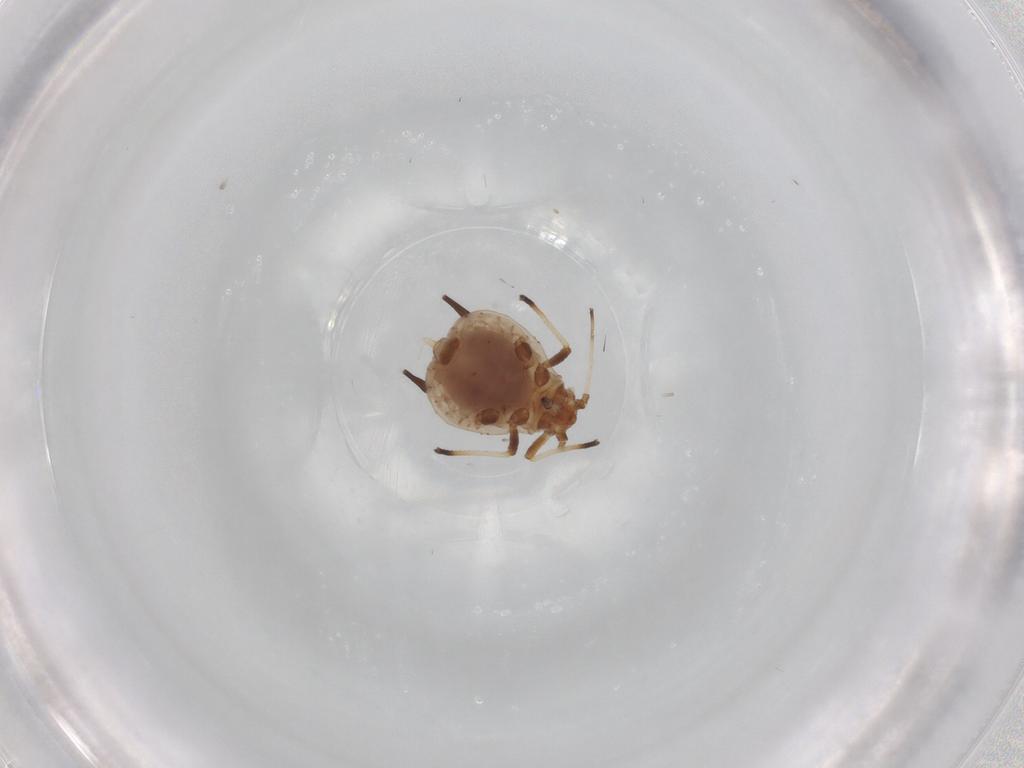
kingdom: Animalia
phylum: Arthropoda
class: Insecta
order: Hemiptera
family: Aphididae
